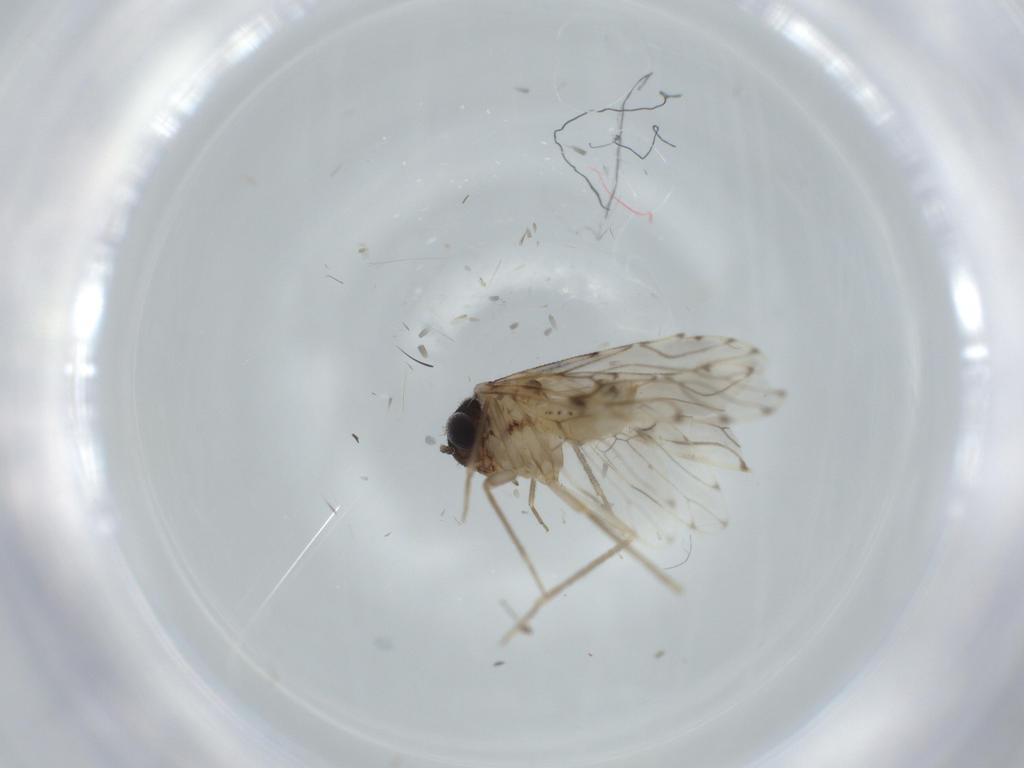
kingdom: Animalia
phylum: Arthropoda
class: Insecta
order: Psocodea
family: Epipsocidae
